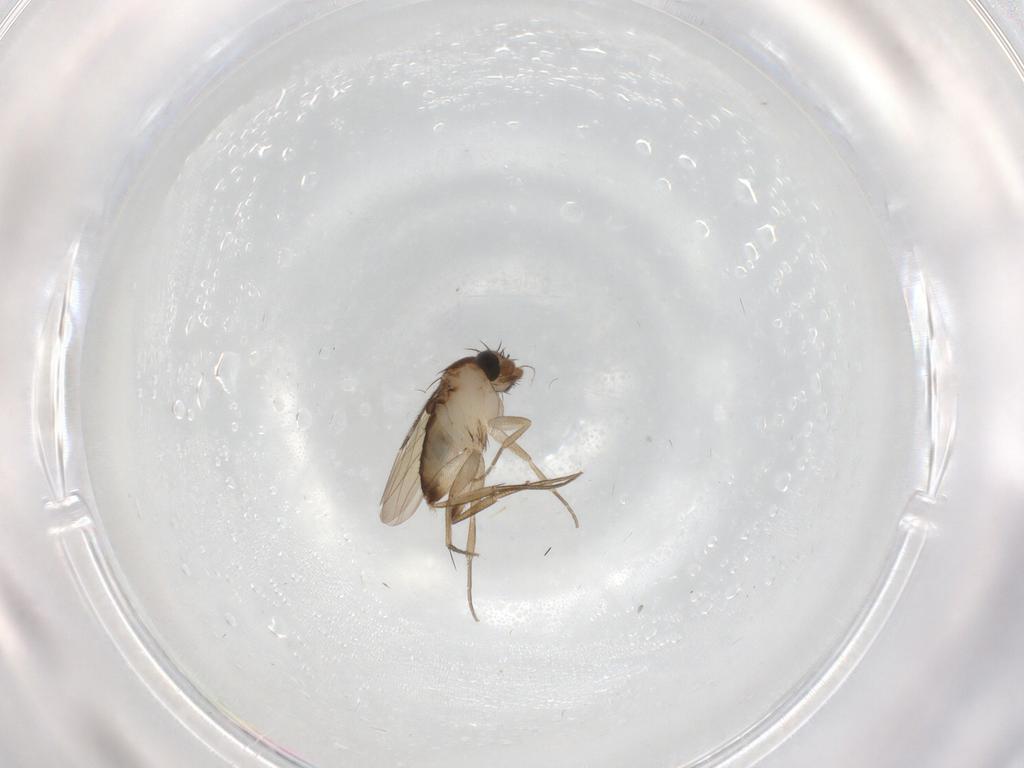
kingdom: Animalia
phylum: Arthropoda
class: Insecta
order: Diptera
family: Phoridae
